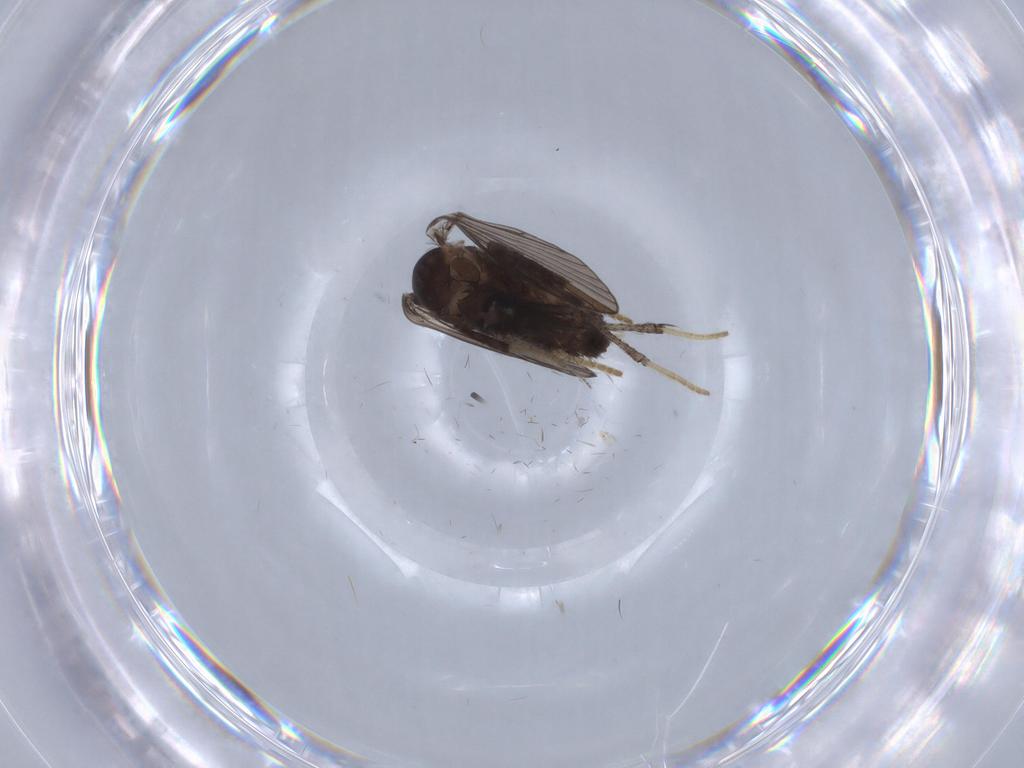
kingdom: Animalia
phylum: Arthropoda
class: Insecta
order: Diptera
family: Psychodidae
